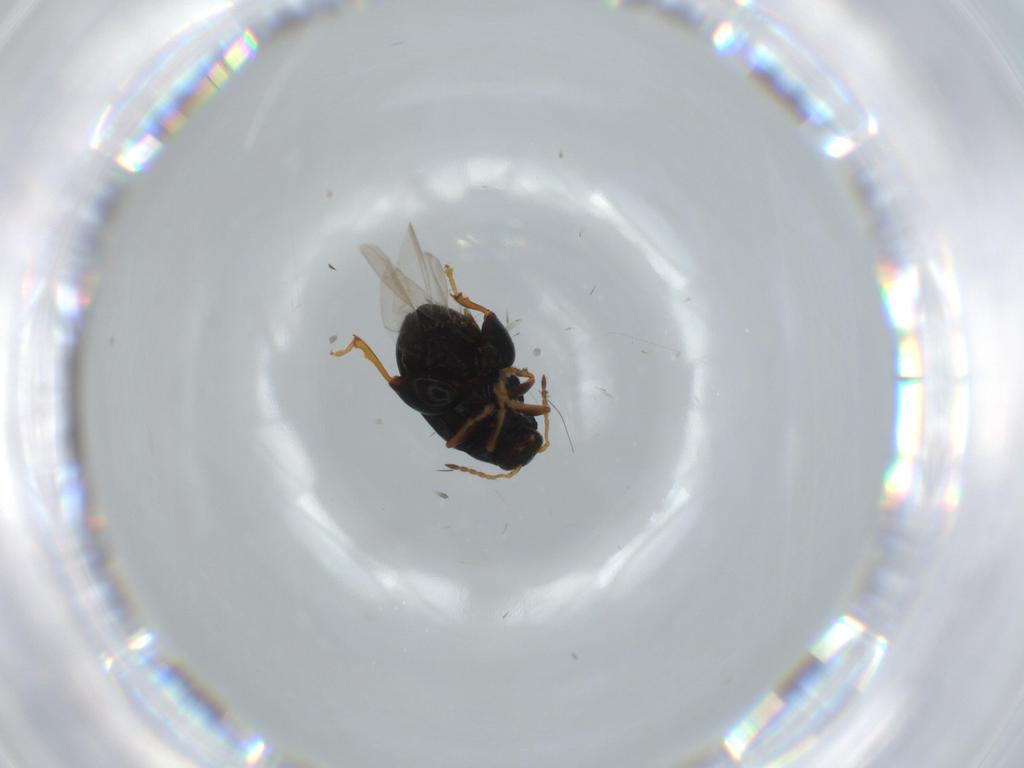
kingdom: Animalia
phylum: Arthropoda
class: Insecta
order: Coleoptera
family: Chrysomelidae
